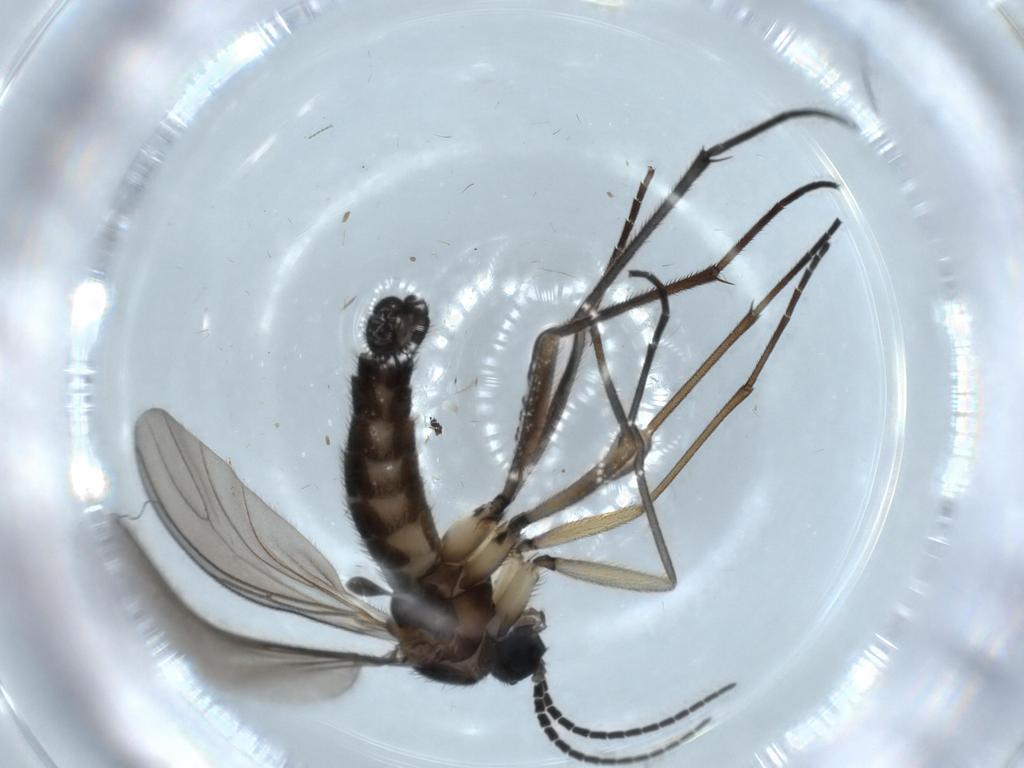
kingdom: Animalia
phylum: Arthropoda
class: Insecta
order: Diptera
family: Sciaridae
